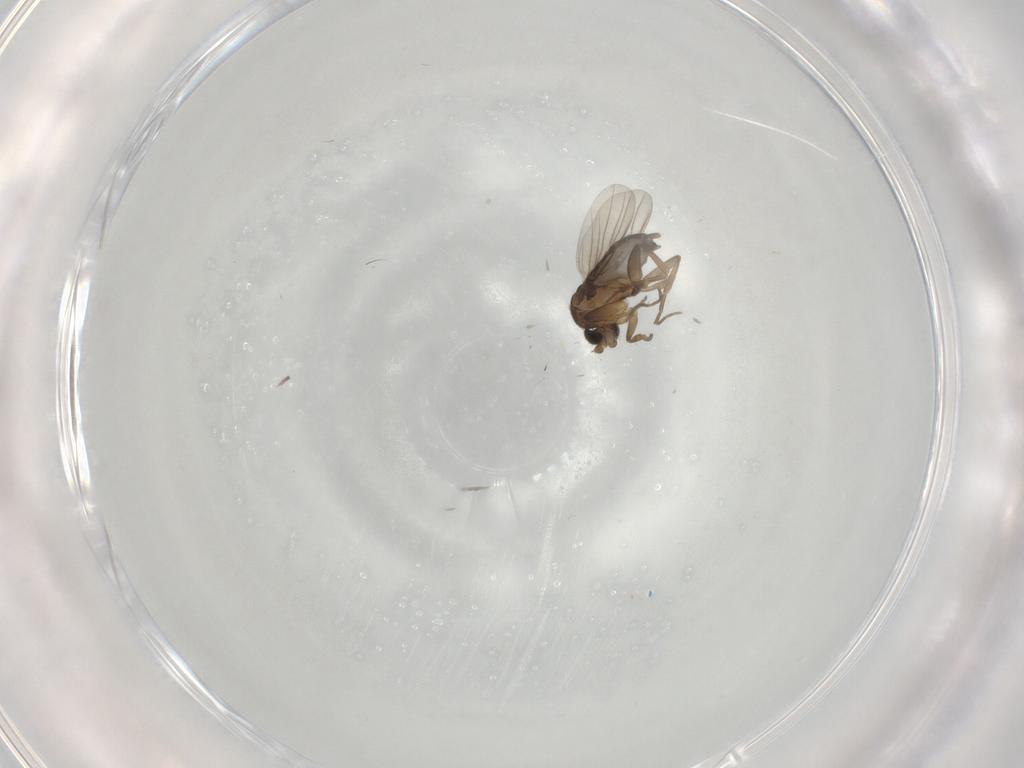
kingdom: Animalia
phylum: Arthropoda
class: Insecta
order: Diptera
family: Phoridae
